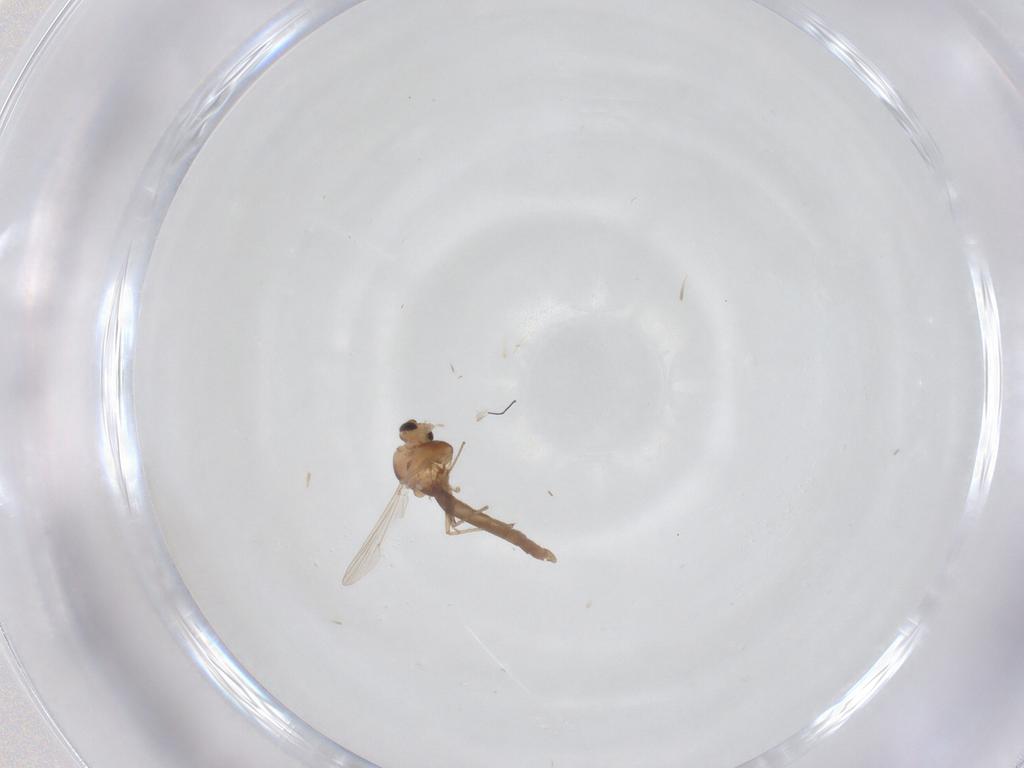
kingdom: Animalia
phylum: Arthropoda
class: Insecta
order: Diptera
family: Chironomidae
